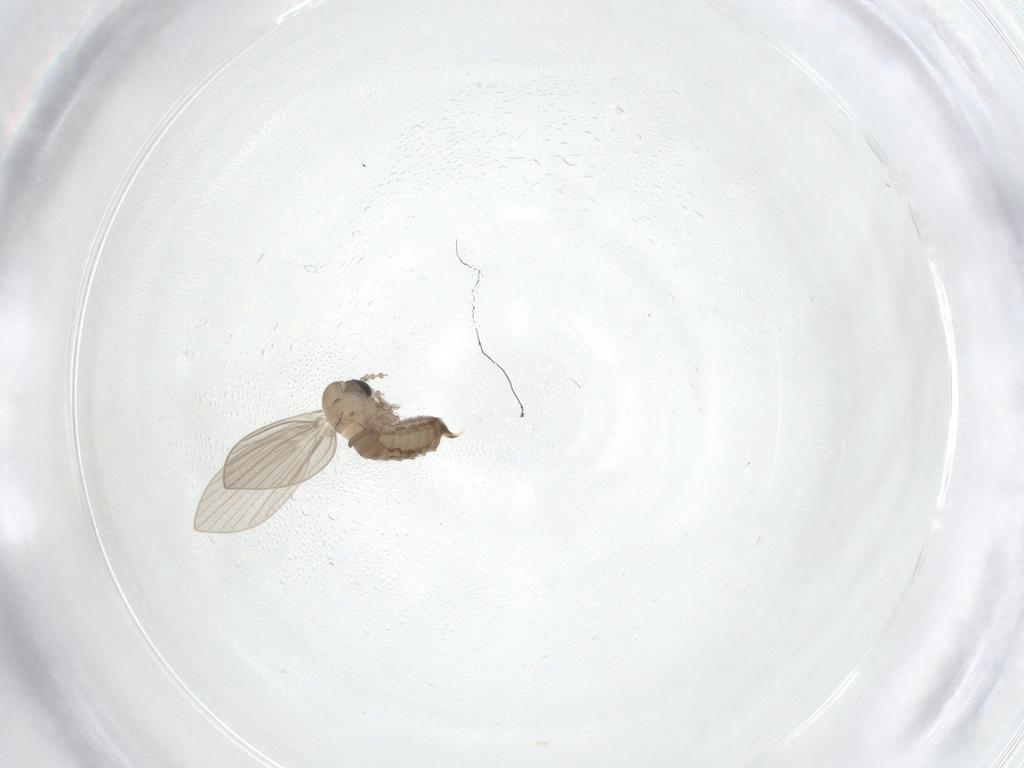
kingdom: Animalia
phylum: Arthropoda
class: Insecta
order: Diptera
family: Psychodidae
